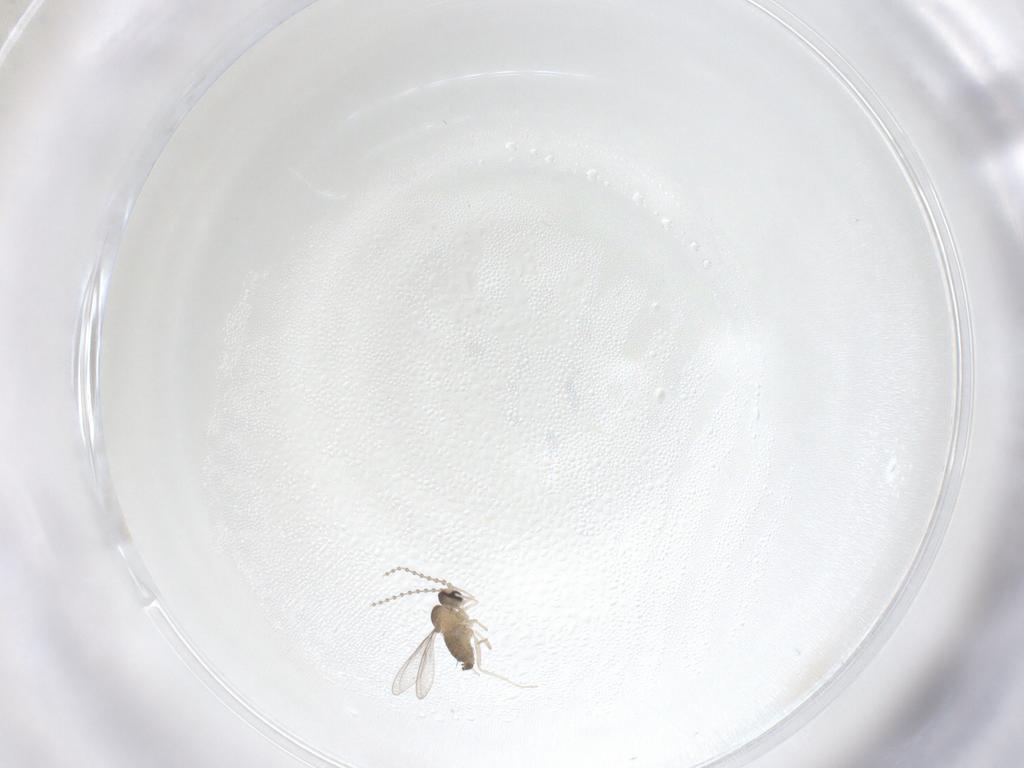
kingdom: Animalia
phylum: Arthropoda
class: Insecta
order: Diptera
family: Cecidomyiidae
